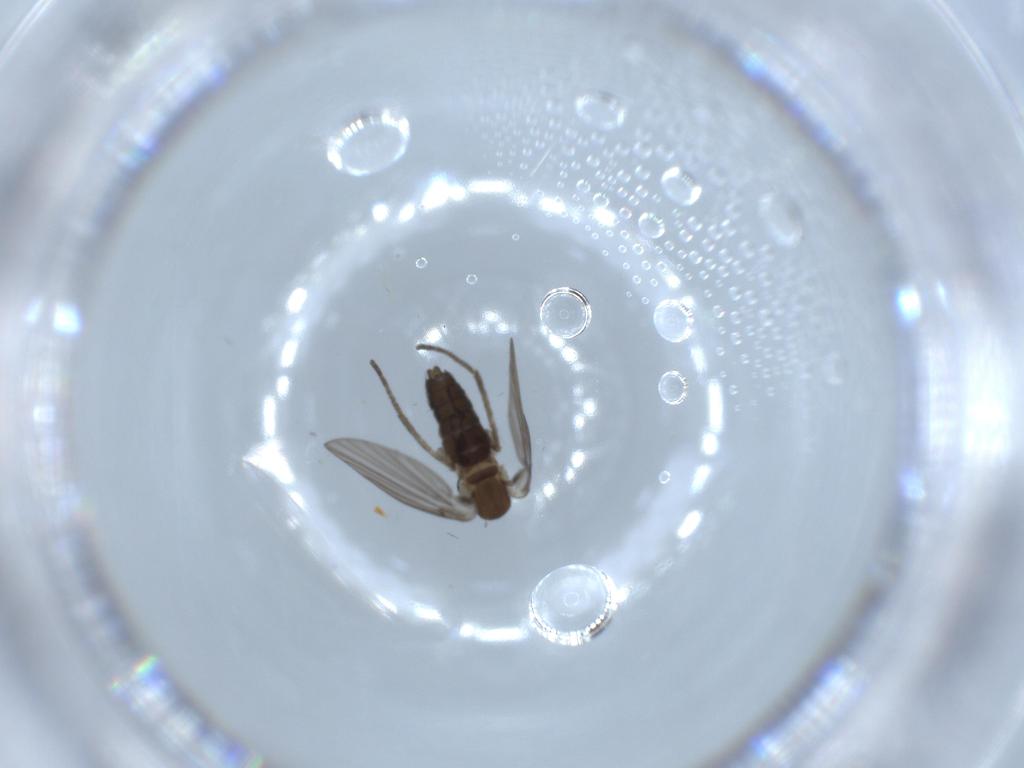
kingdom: Animalia
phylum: Arthropoda
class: Insecta
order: Diptera
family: Psychodidae
